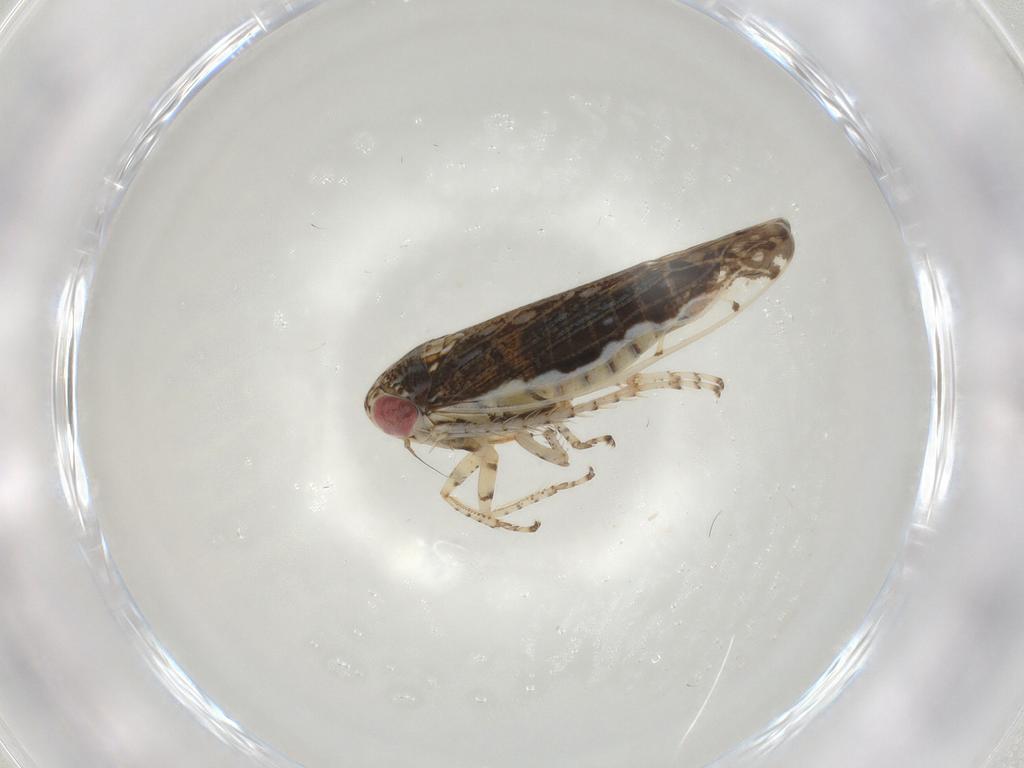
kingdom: Animalia
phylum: Arthropoda
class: Insecta
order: Hemiptera
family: Cicadellidae
